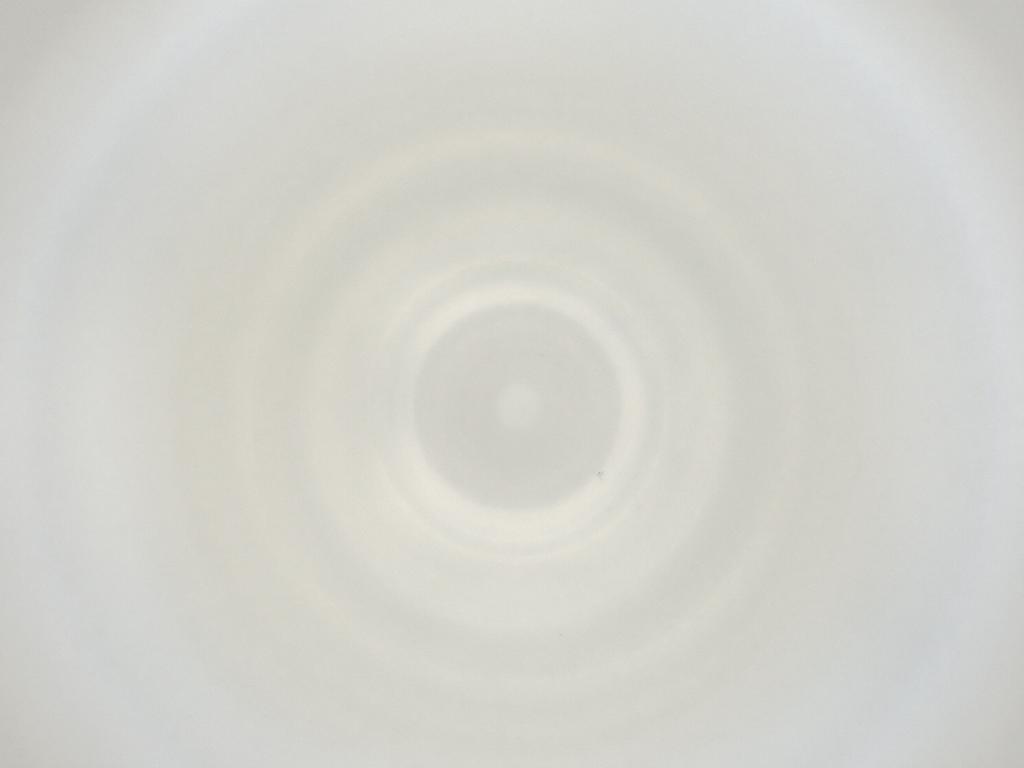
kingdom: Animalia
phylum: Arthropoda
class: Insecta
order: Diptera
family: Cecidomyiidae
